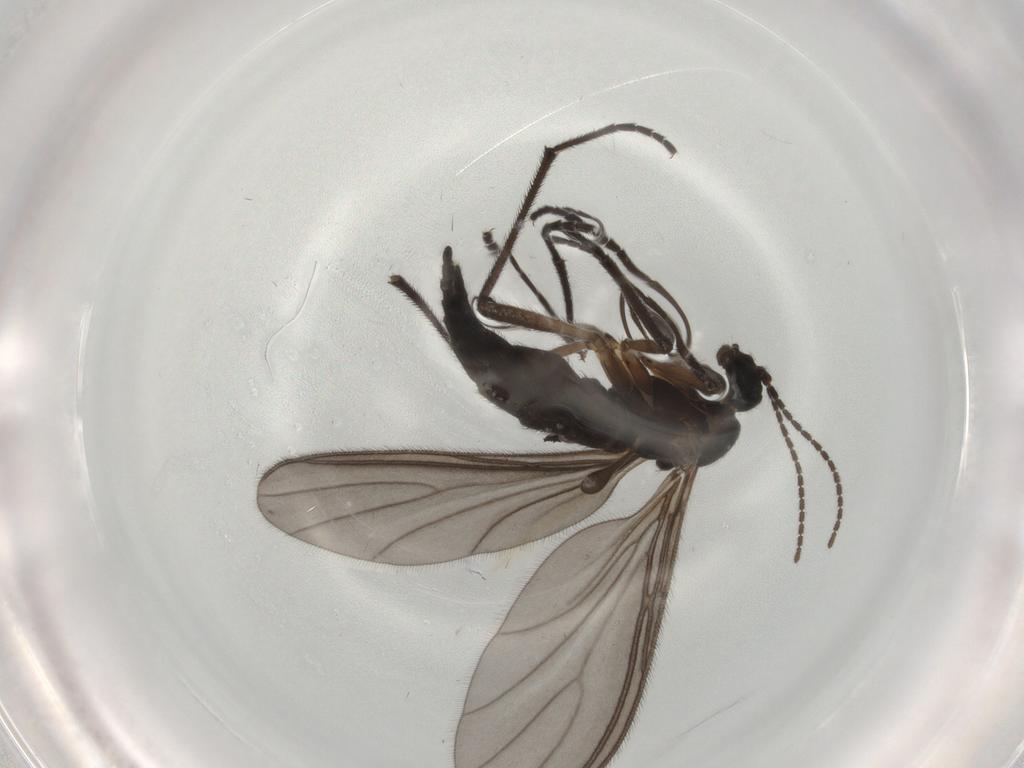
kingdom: Animalia
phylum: Arthropoda
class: Insecta
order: Diptera
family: Sciaridae
